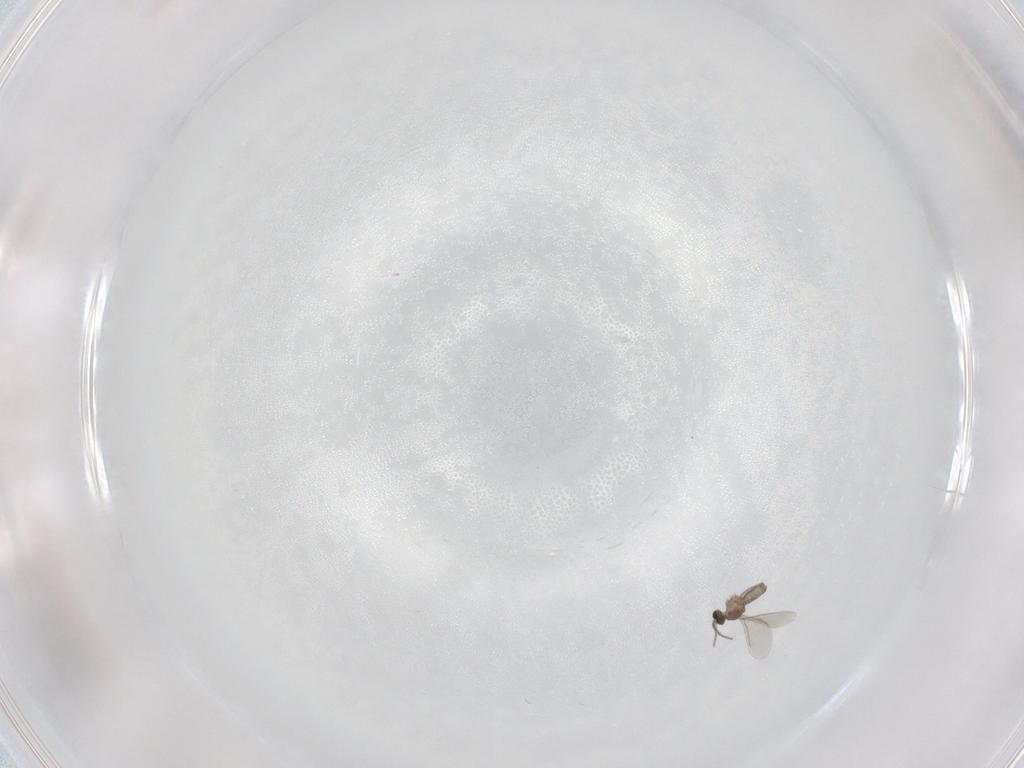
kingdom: Animalia
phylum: Arthropoda
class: Insecta
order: Diptera
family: Cecidomyiidae
